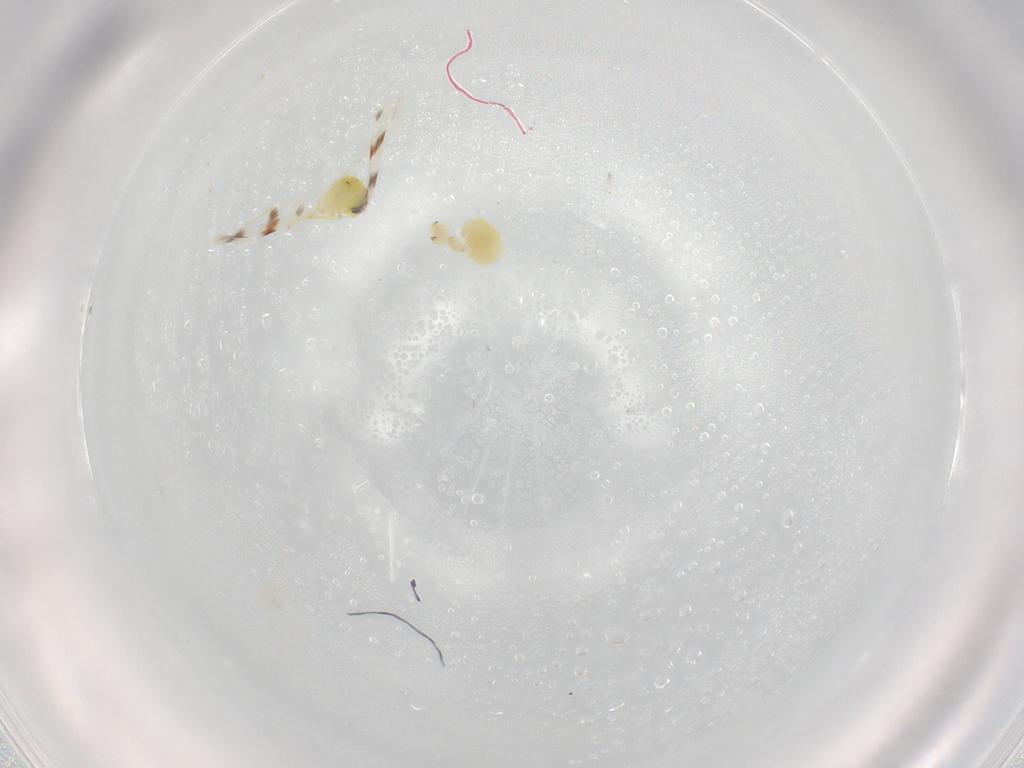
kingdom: Animalia
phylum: Arthropoda
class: Insecta
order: Hemiptera
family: Aleyrodidae
